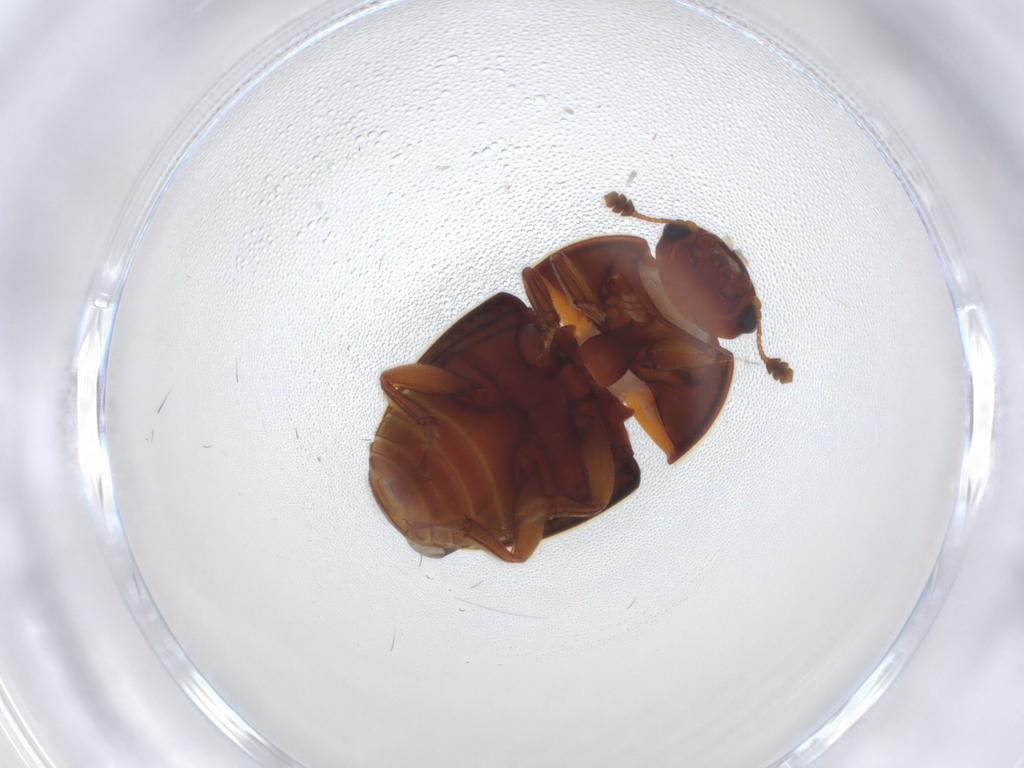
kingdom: Animalia
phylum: Arthropoda
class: Insecta
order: Coleoptera
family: Nitidulidae
